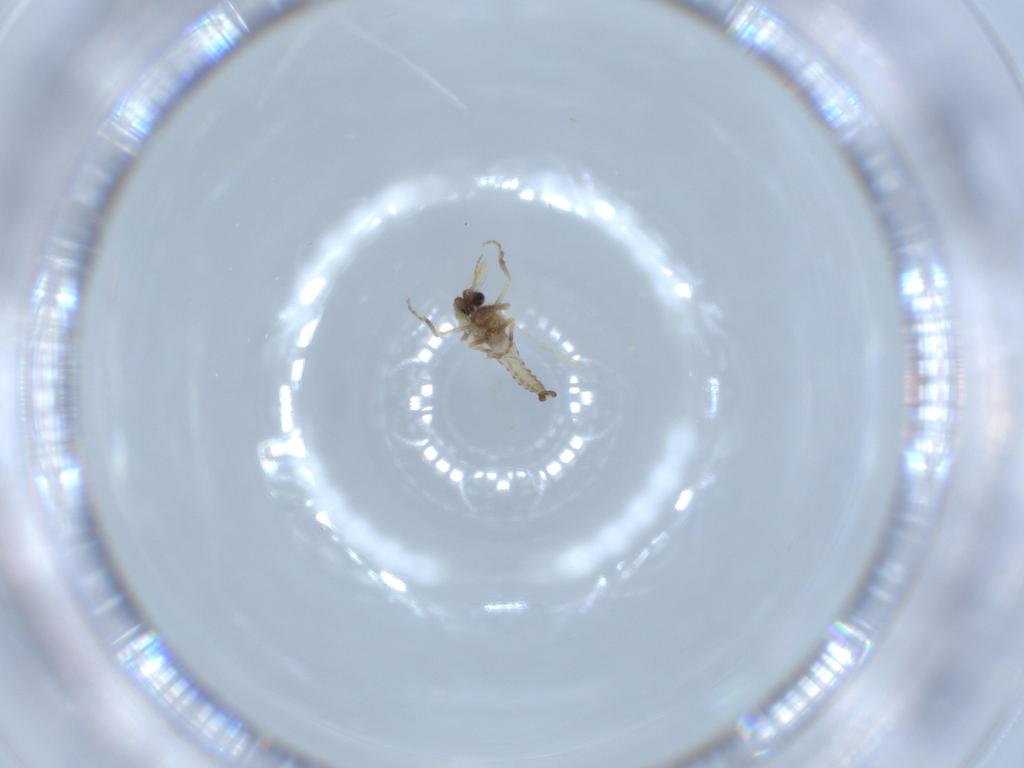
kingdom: Animalia
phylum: Arthropoda
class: Insecta
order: Diptera
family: Ceratopogonidae
